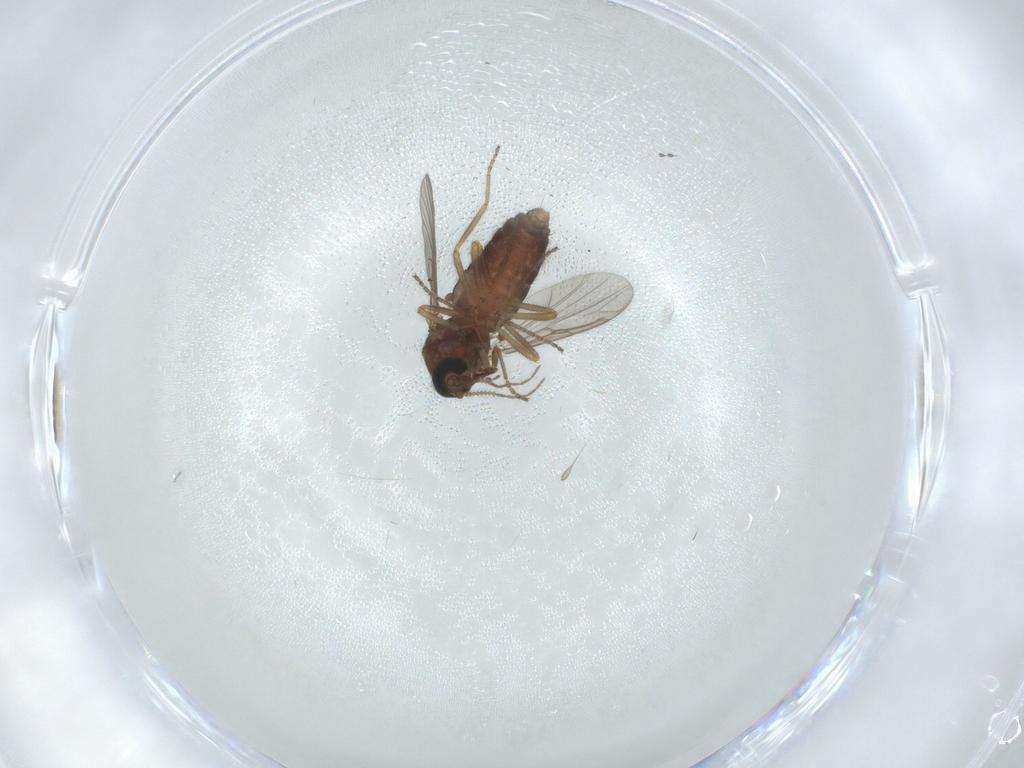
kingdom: Animalia
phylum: Arthropoda
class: Insecta
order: Diptera
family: Ceratopogonidae
